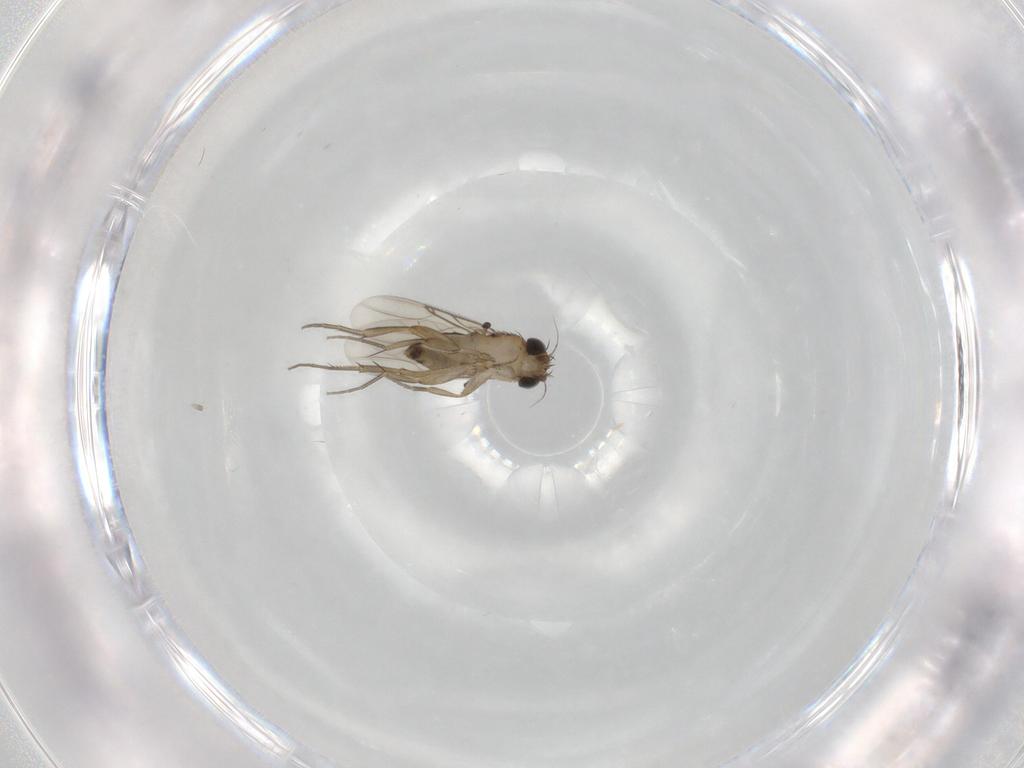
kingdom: Animalia
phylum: Arthropoda
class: Insecta
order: Diptera
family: Phoridae
